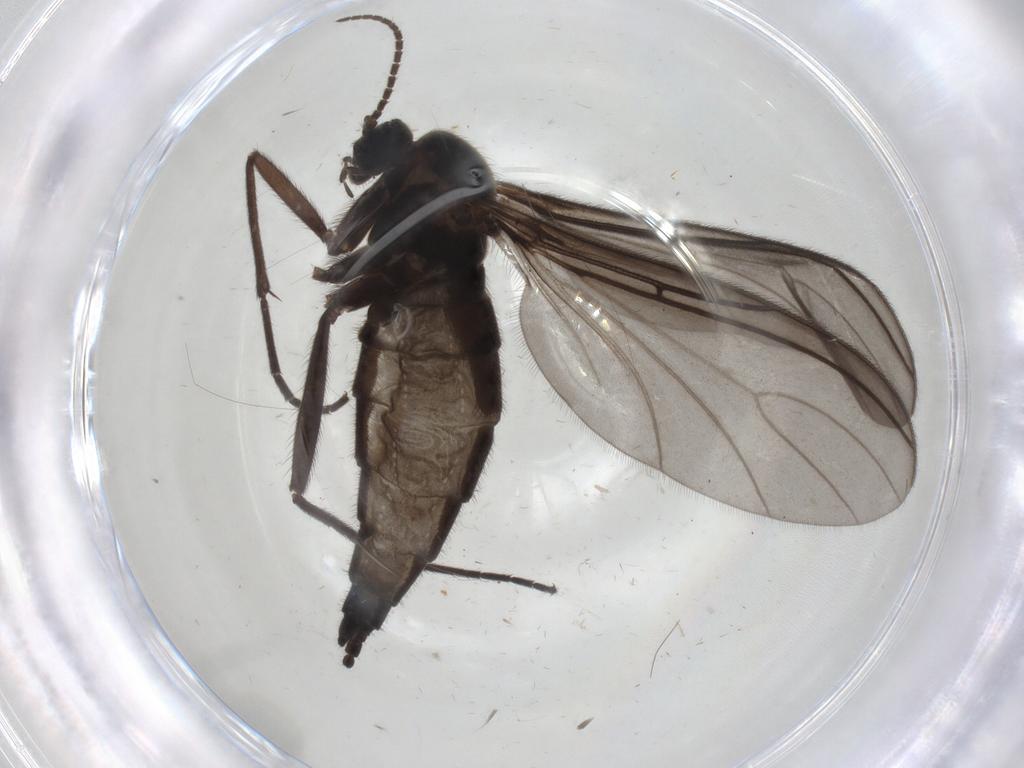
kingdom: Animalia
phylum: Arthropoda
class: Insecta
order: Diptera
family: Sciaridae
